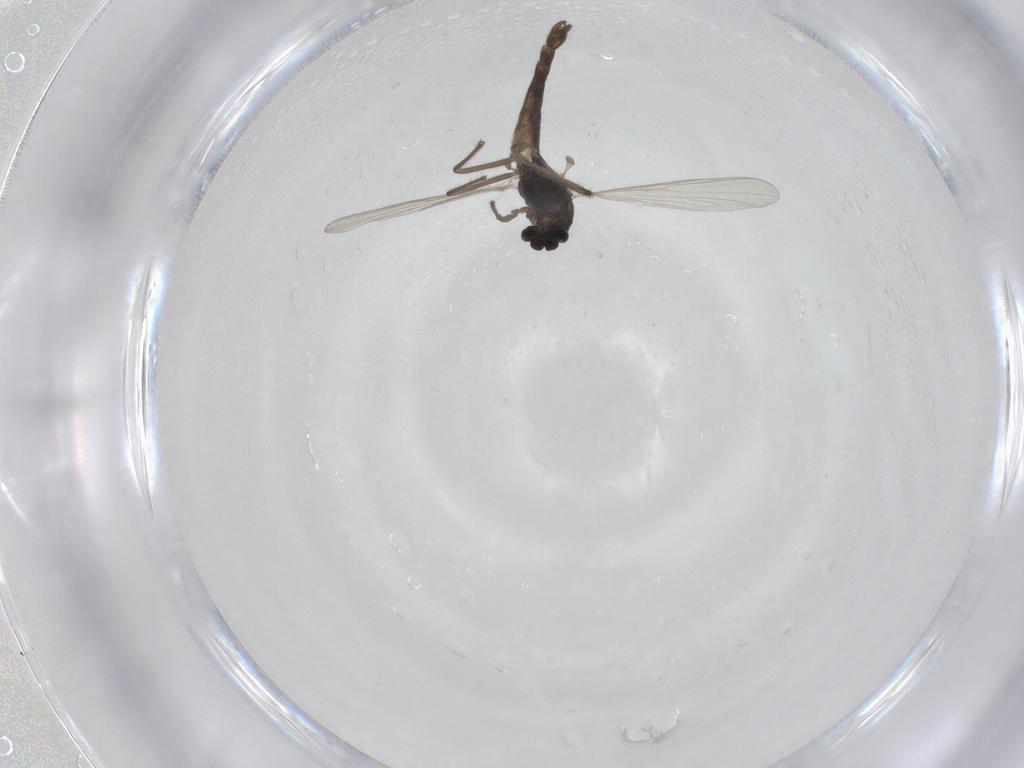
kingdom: Animalia
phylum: Arthropoda
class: Insecta
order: Diptera
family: Chironomidae
